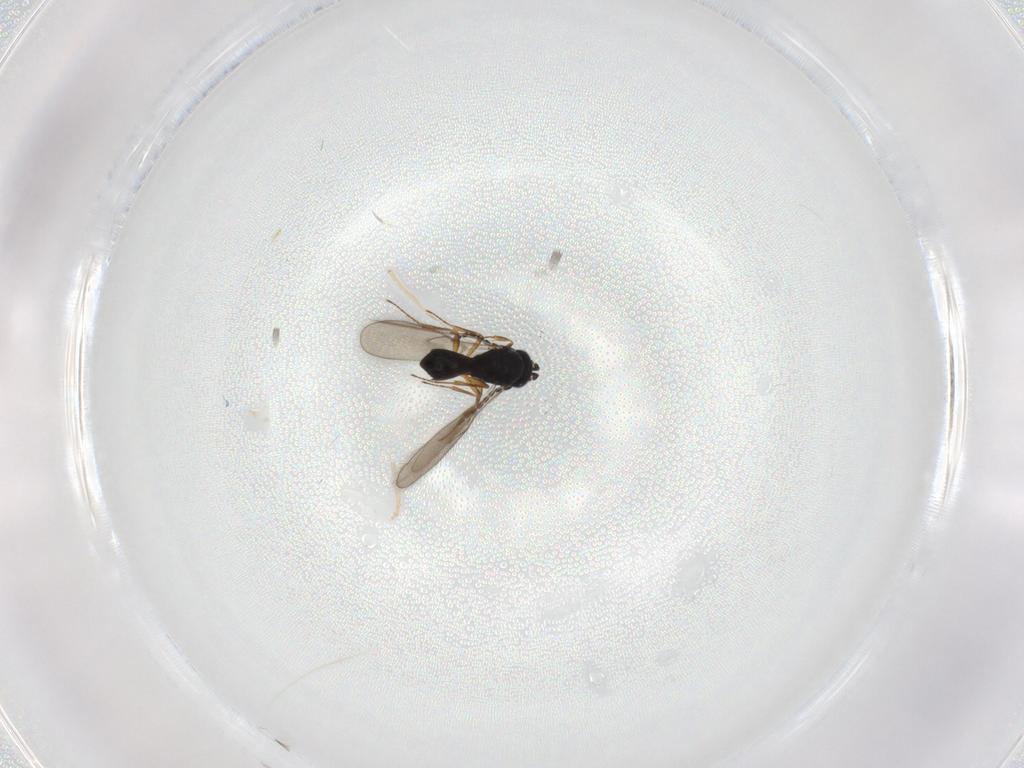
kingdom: Animalia
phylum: Arthropoda
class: Insecta
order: Hymenoptera
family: Scelionidae
